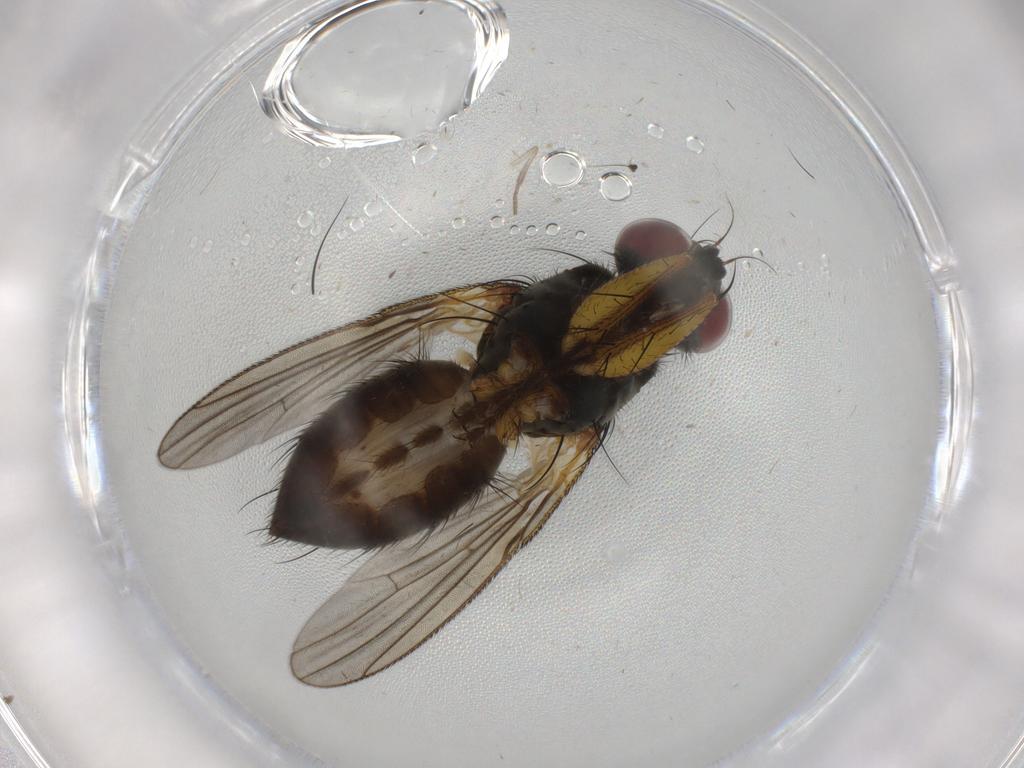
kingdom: Animalia
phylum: Arthropoda
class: Insecta
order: Diptera
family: Muscidae
